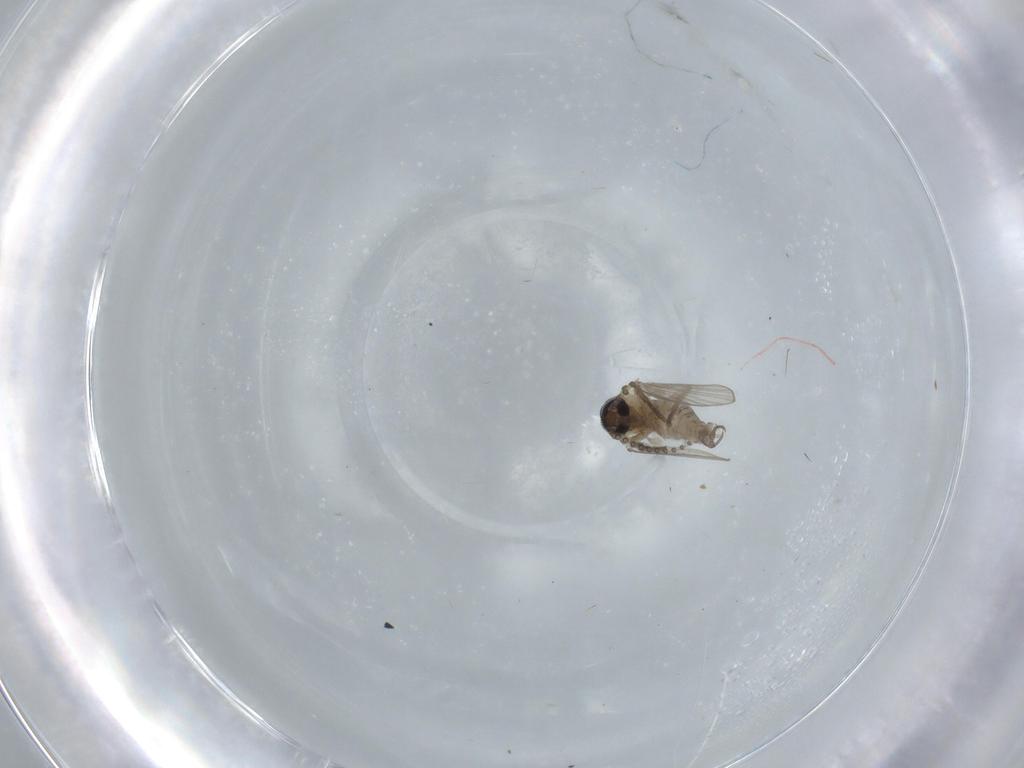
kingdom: Animalia
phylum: Arthropoda
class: Insecta
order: Diptera
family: Psychodidae
